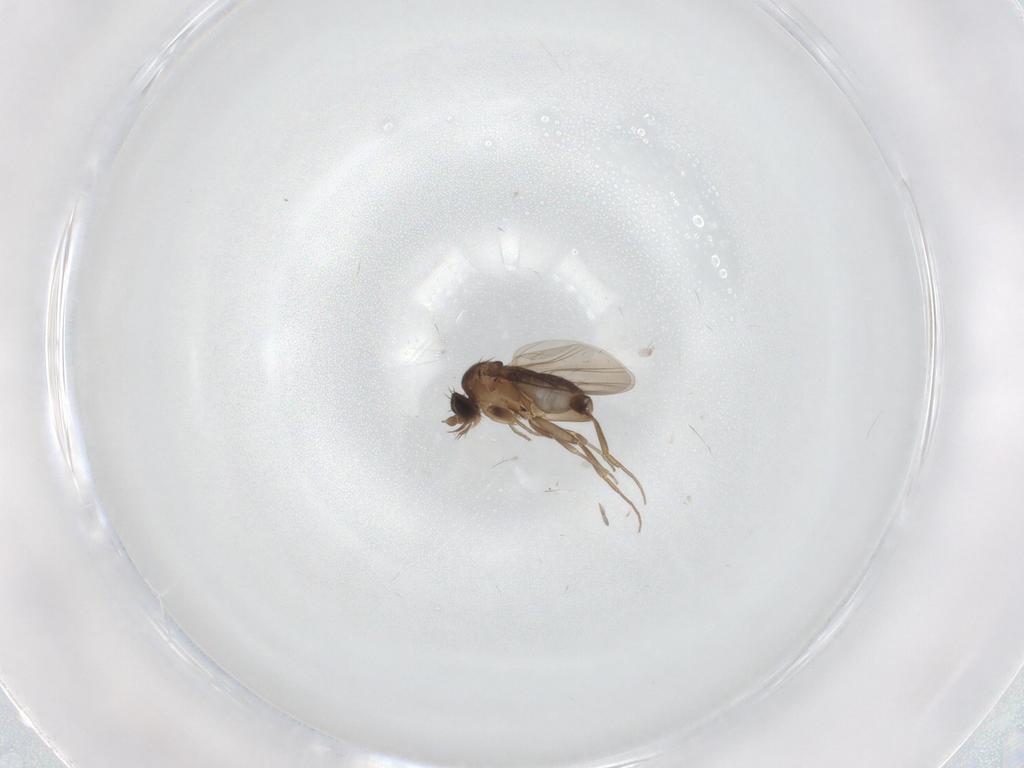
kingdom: Animalia
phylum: Arthropoda
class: Insecta
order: Diptera
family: Phoridae
